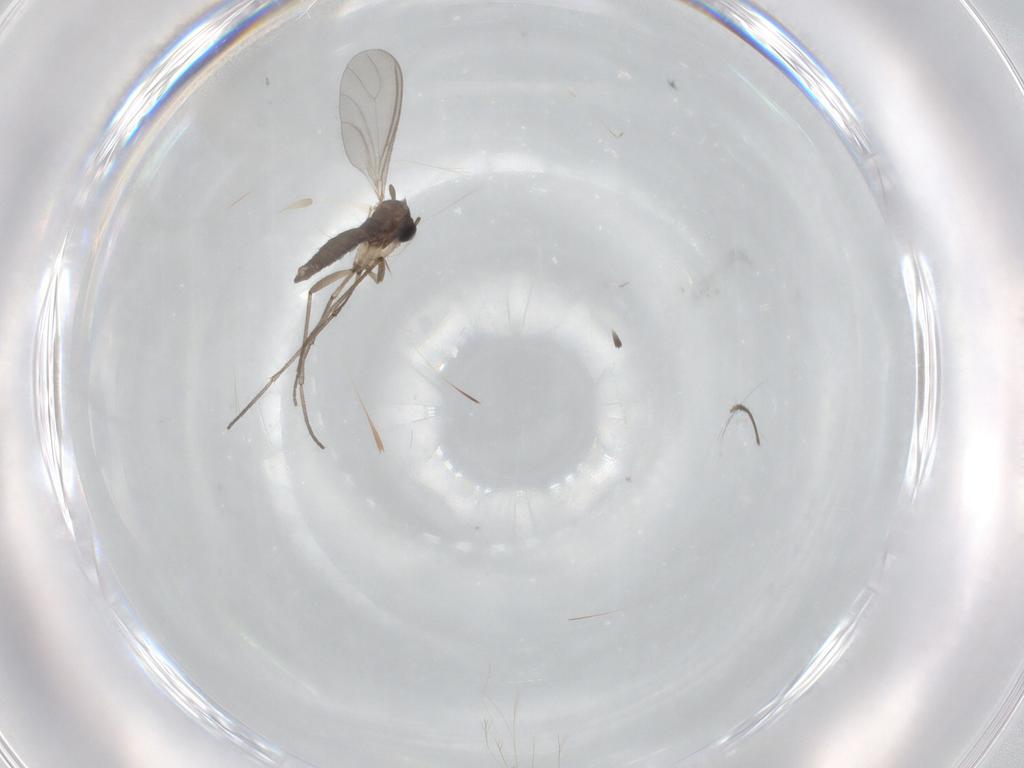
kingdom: Animalia
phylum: Arthropoda
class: Insecta
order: Diptera
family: Sciaridae
